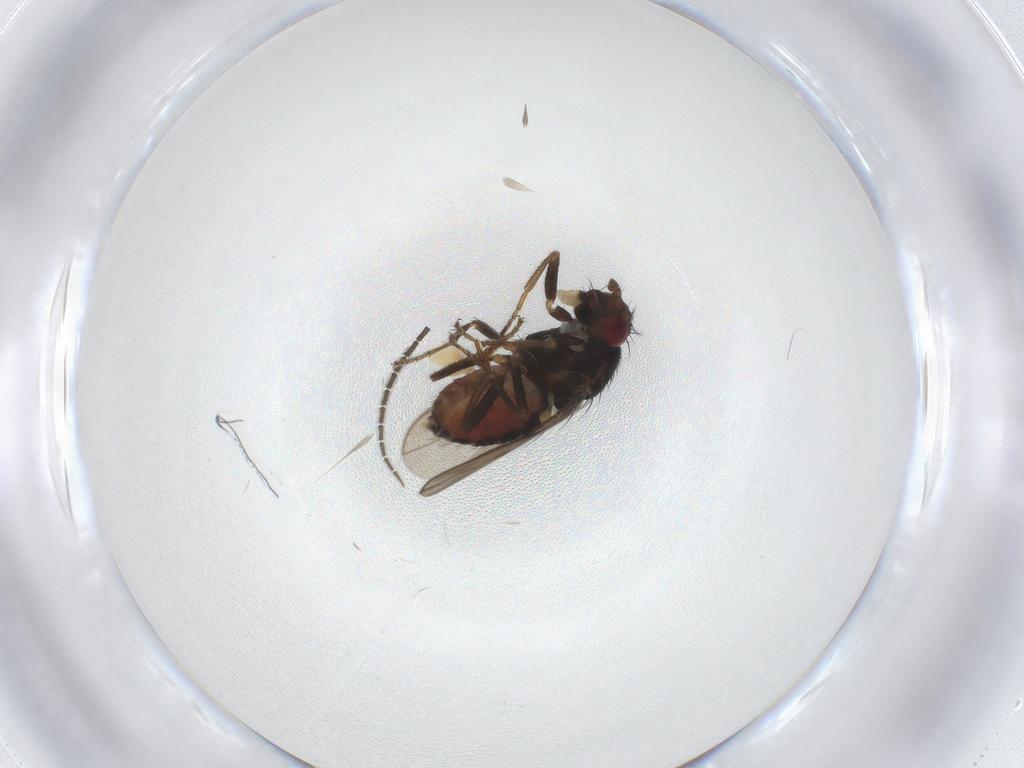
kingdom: Animalia
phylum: Arthropoda
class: Insecta
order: Diptera
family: Sphaeroceridae
